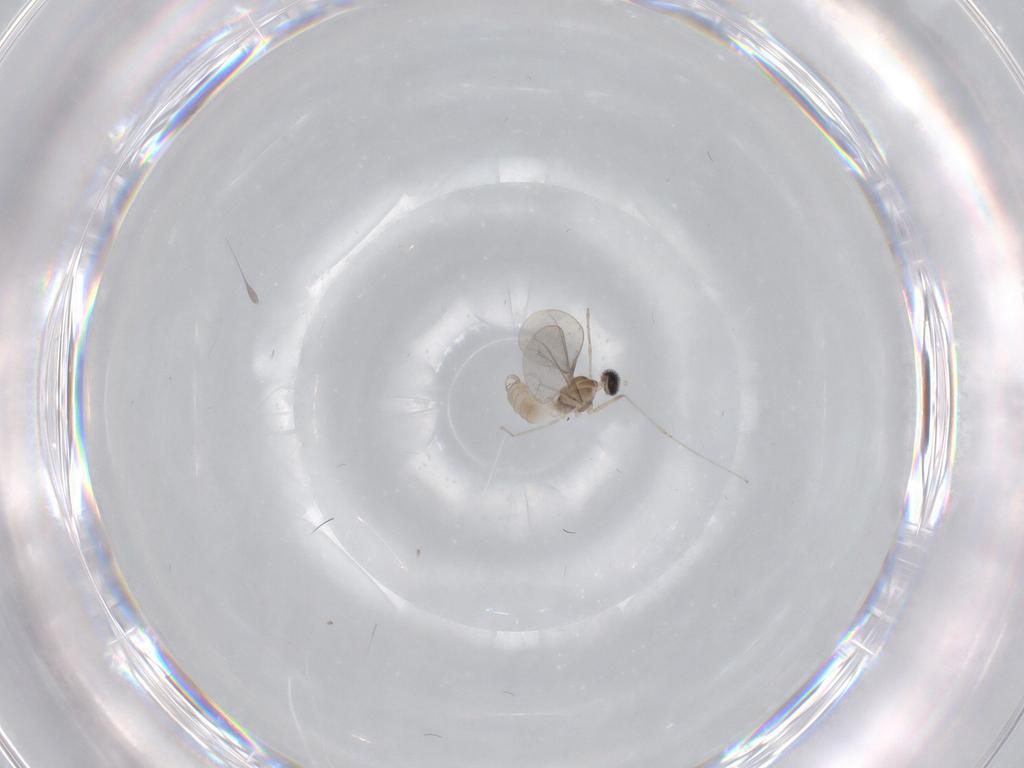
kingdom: Animalia
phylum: Arthropoda
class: Insecta
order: Diptera
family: Cecidomyiidae
